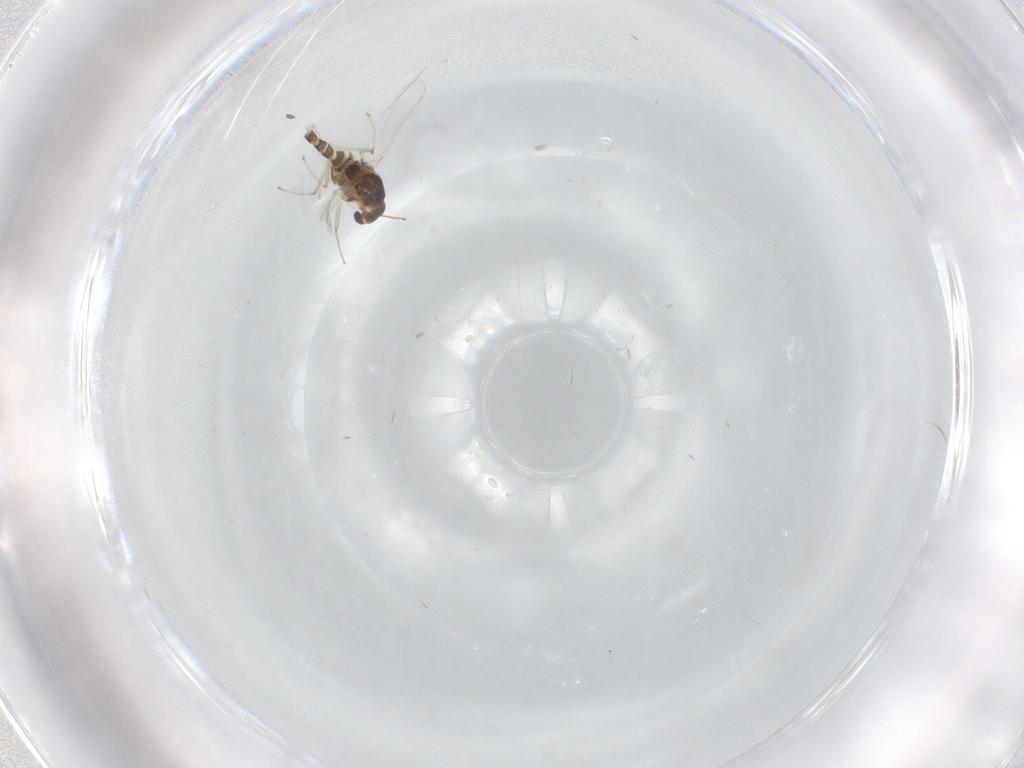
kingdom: Animalia
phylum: Arthropoda
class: Insecta
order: Diptera
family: Chironomidae
